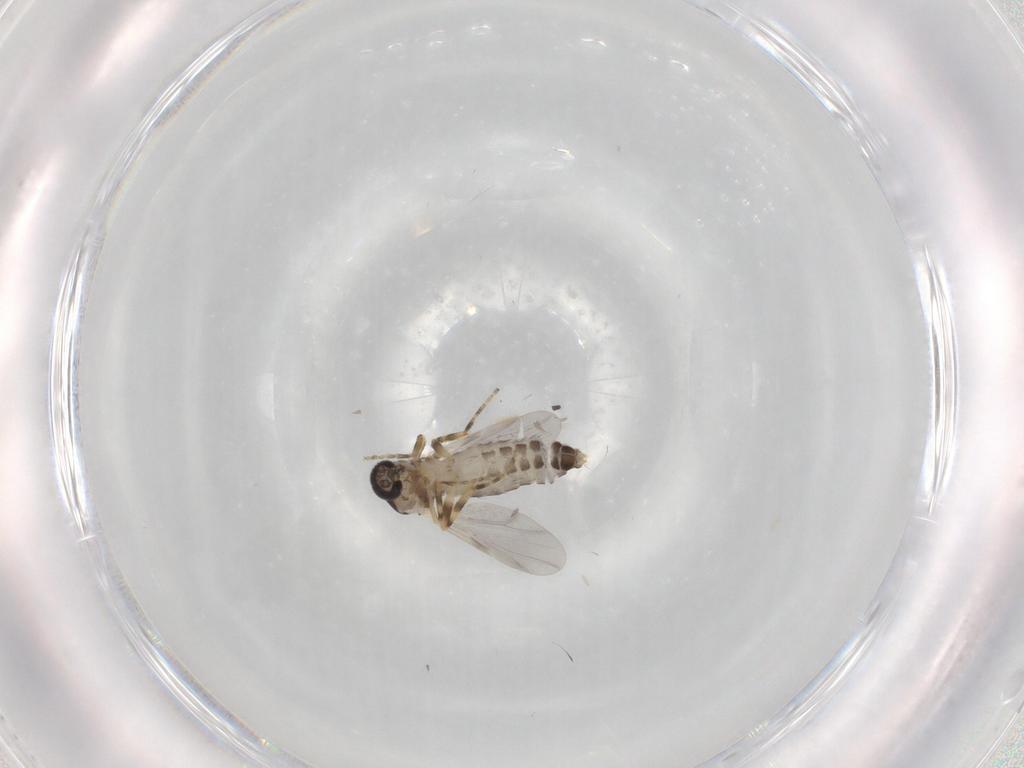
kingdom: Animalia
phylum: Arthropoda
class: Insecta
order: Diptera
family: Ceratopogonidae
